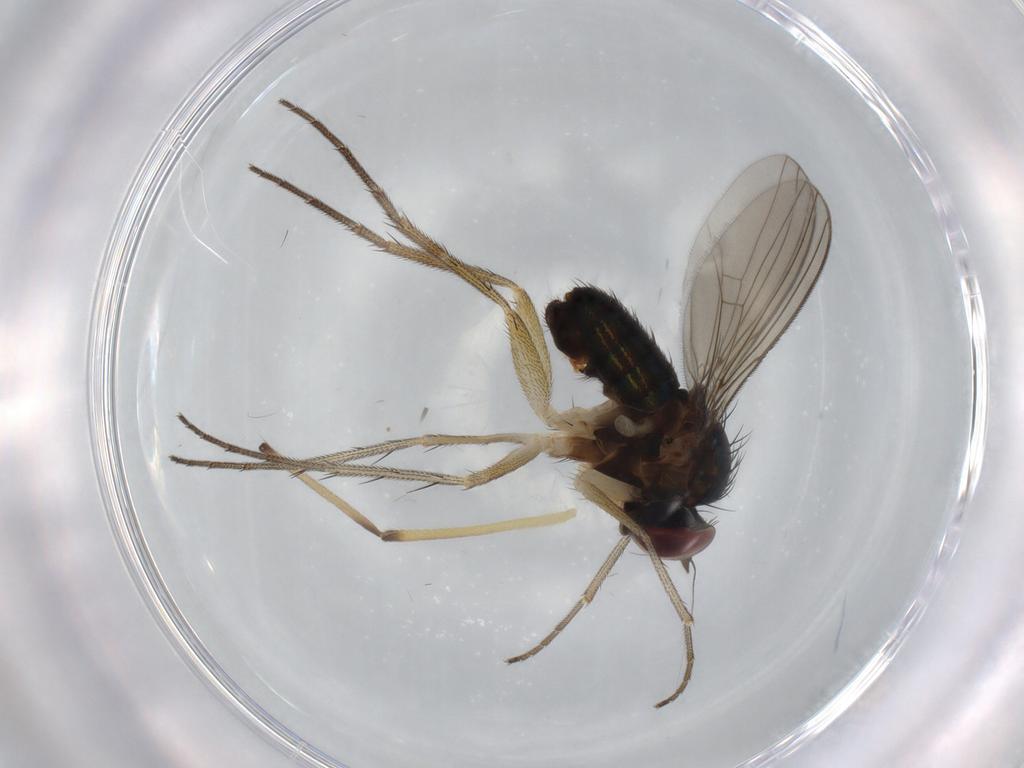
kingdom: Animalia
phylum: Arthropoda
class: Insecta
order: Diptera
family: Dolichopodidae
